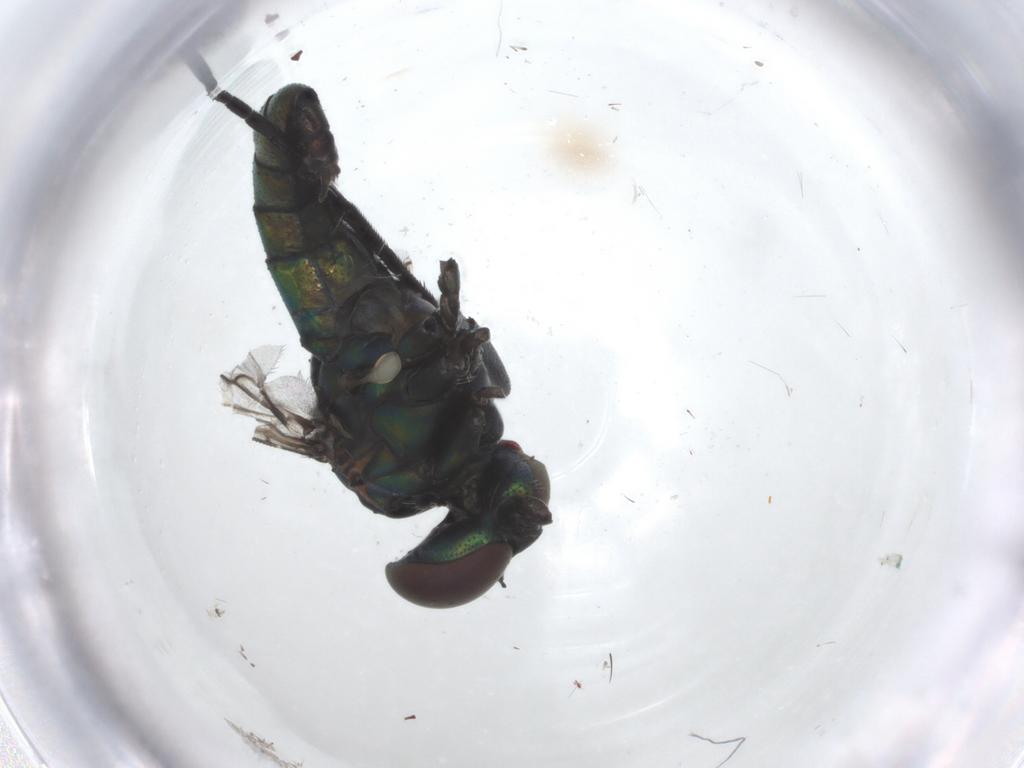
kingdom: Animalia
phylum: Arthropoda
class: Insecta
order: Diptera
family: Dolichopodidae
